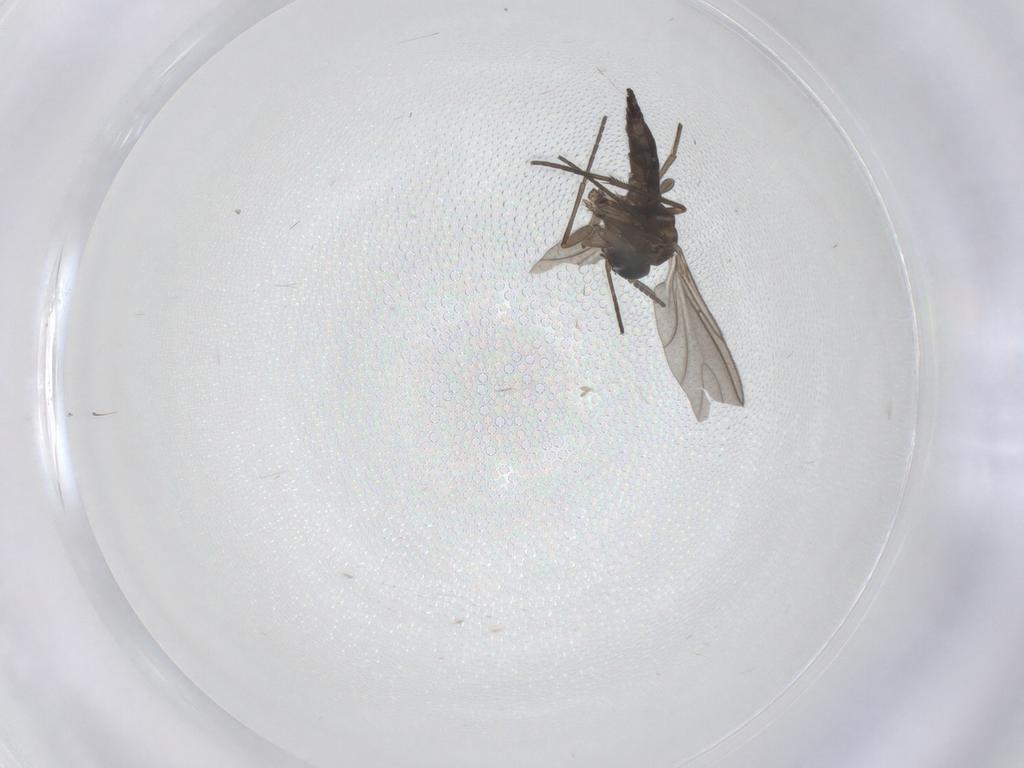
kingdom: Animalia
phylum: Arthropoda
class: Insecta
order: Diptera
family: Sciaridae
